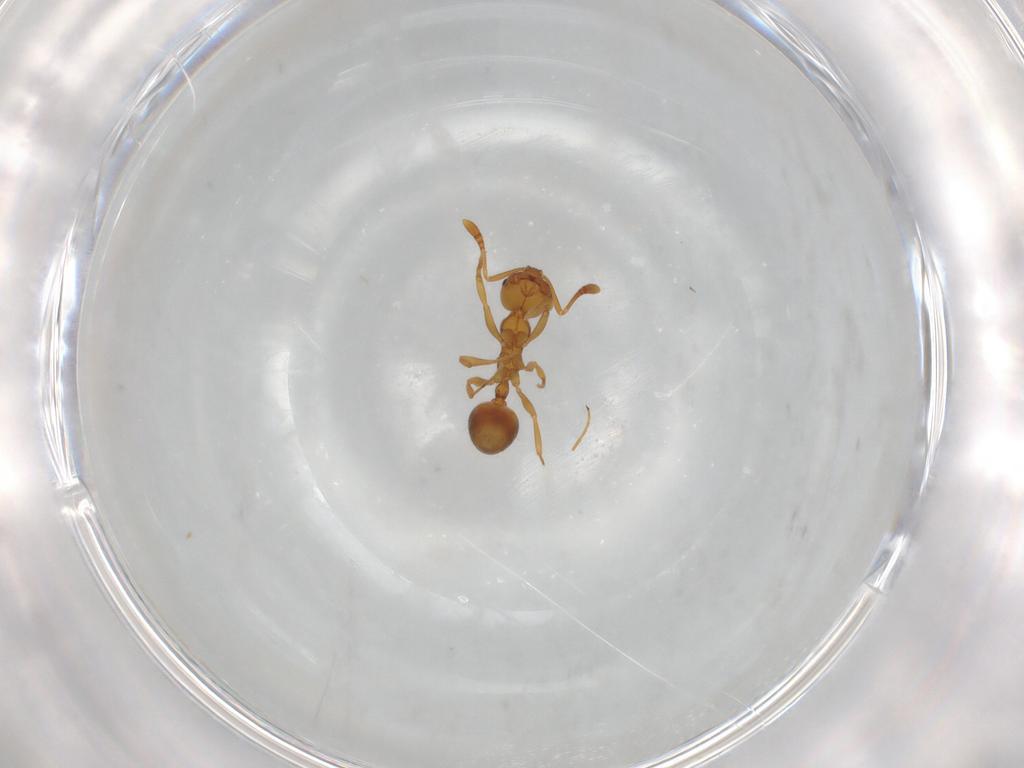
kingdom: Animalia
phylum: Arthropoda
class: Insecta
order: Hymenoptera
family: Formicidae
